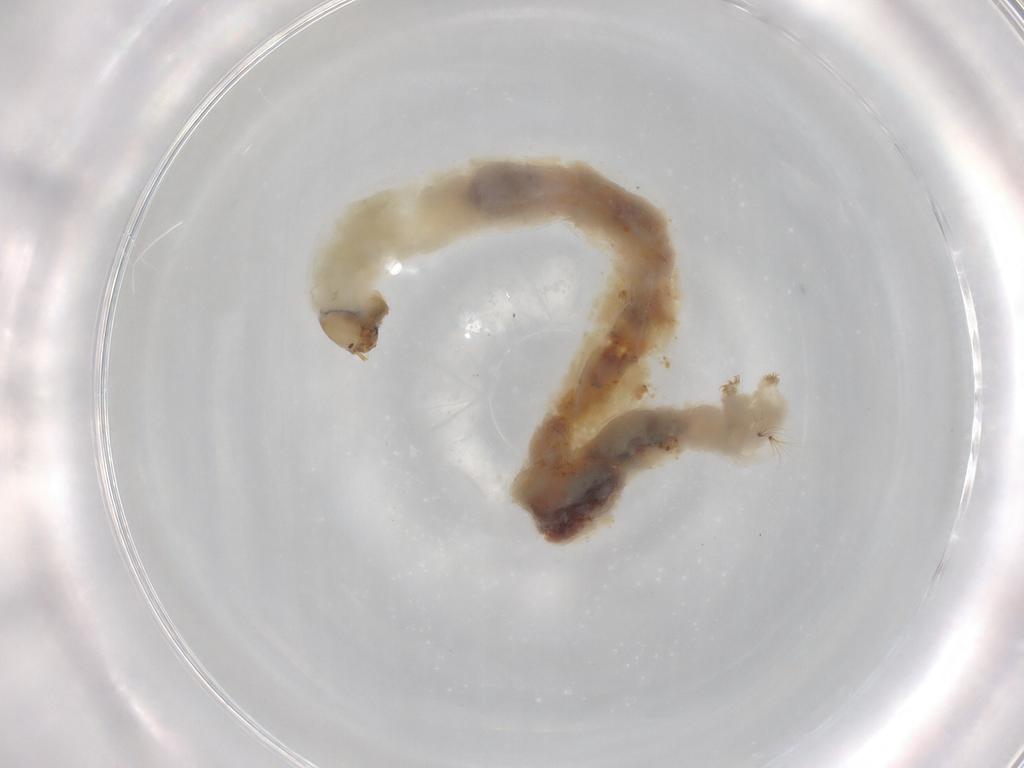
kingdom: Animalia
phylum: Arthropoda
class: Insecta
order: Diptera
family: Chironomidae
